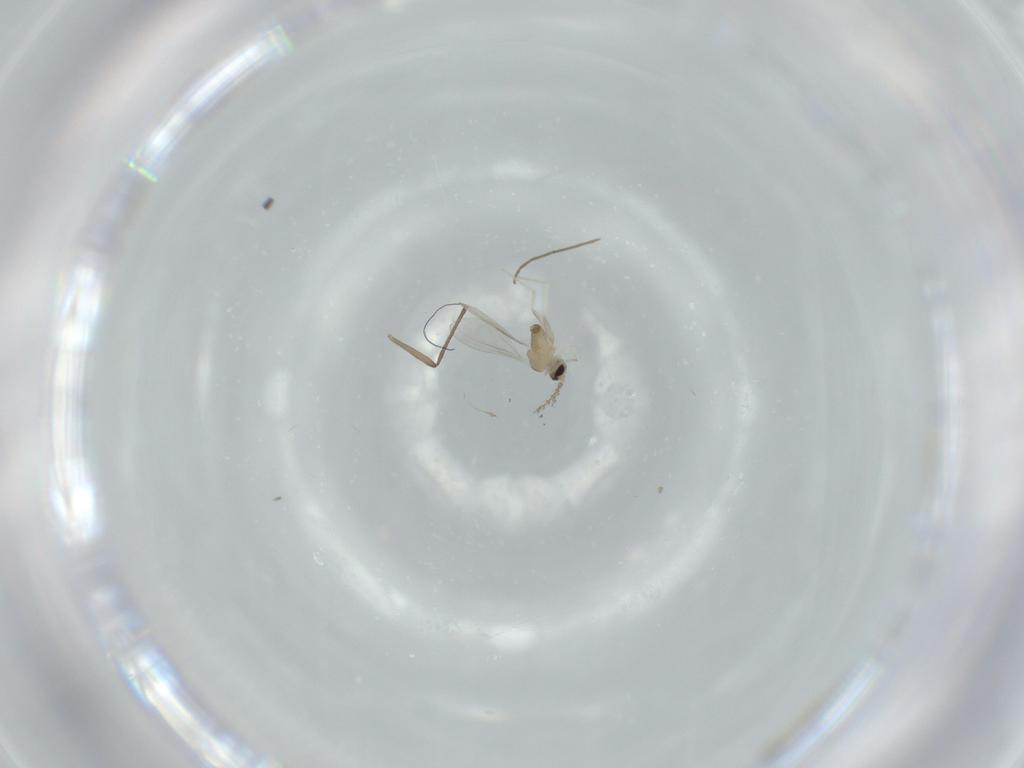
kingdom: Animalia
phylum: Arthropoda
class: Insecta
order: Diptera
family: Cecidomyiidae
